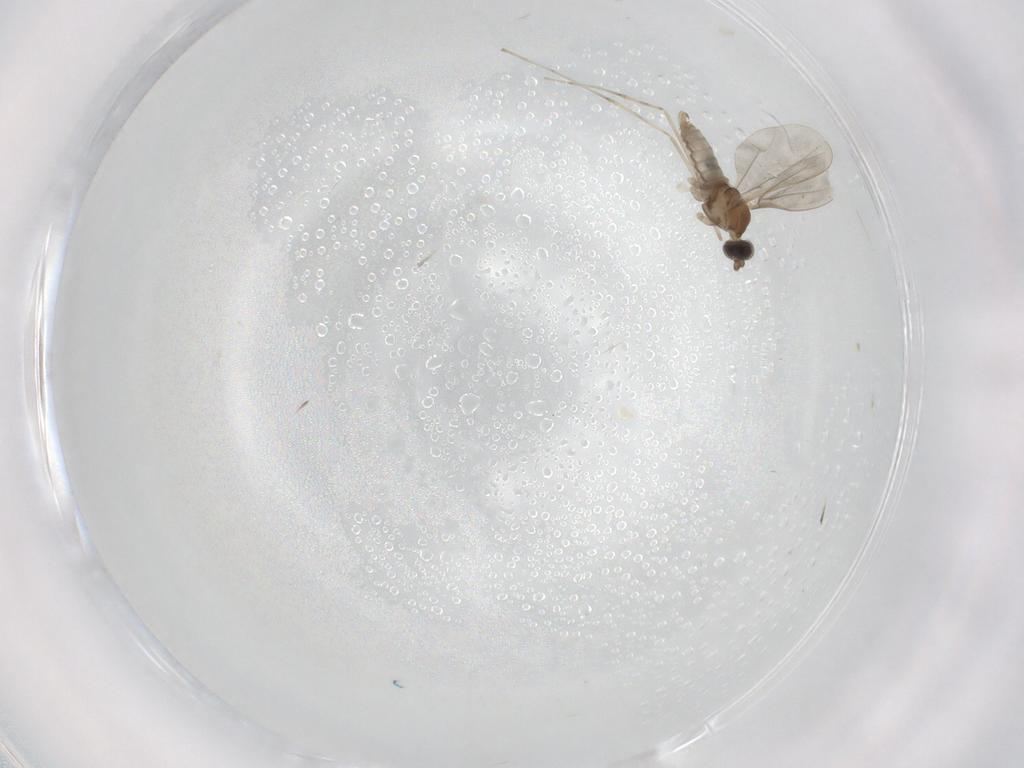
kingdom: Animalia
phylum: Arthropoda
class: Insecta
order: Diptera
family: Cecidomyiidae
